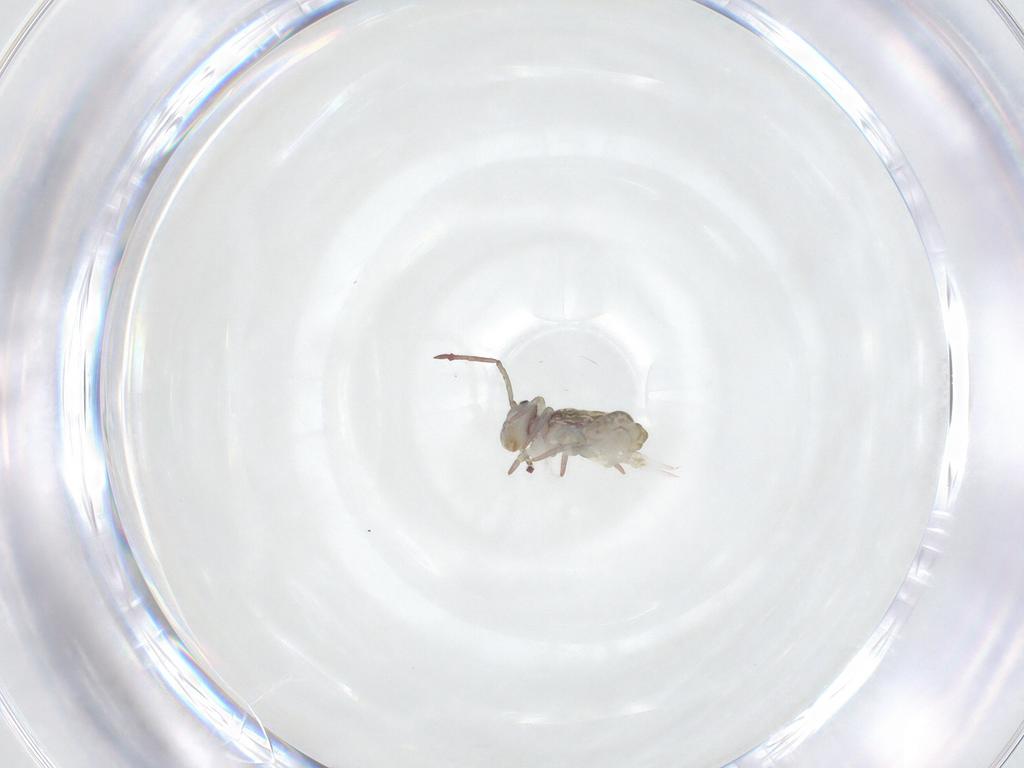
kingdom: Animalia
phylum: Arthropoda
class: Collembola
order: Symphypleona
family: Dicyrtomidae
